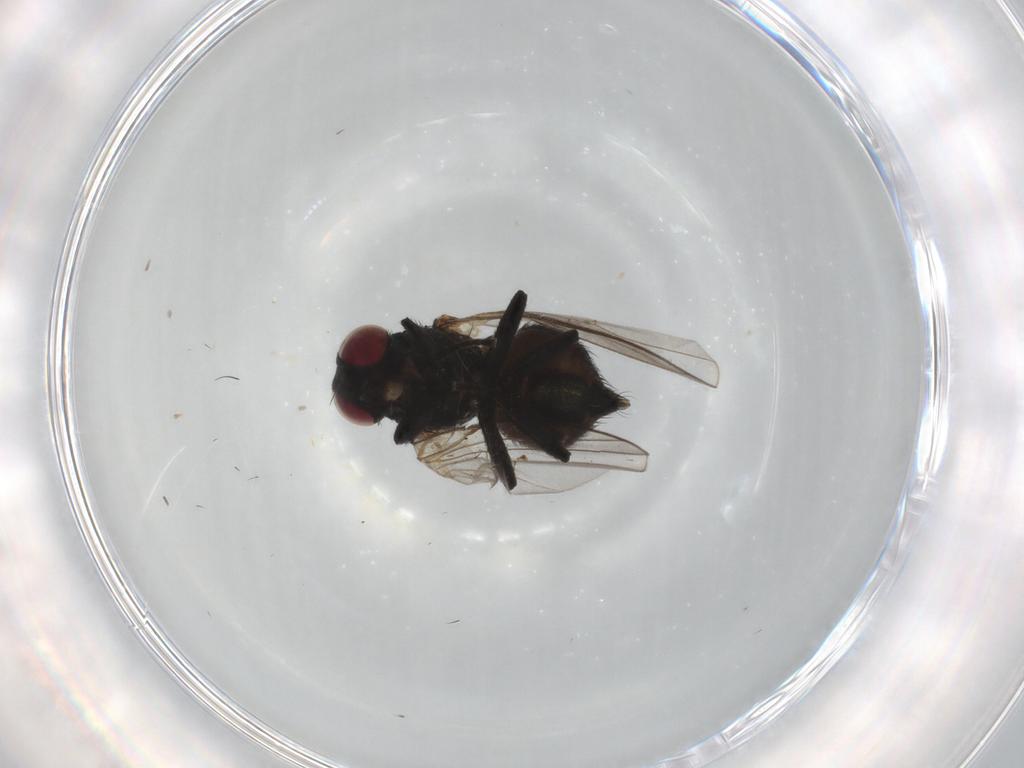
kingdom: Animalia
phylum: Arthropoda
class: Insecta
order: Diptera
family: Agromyzidae
